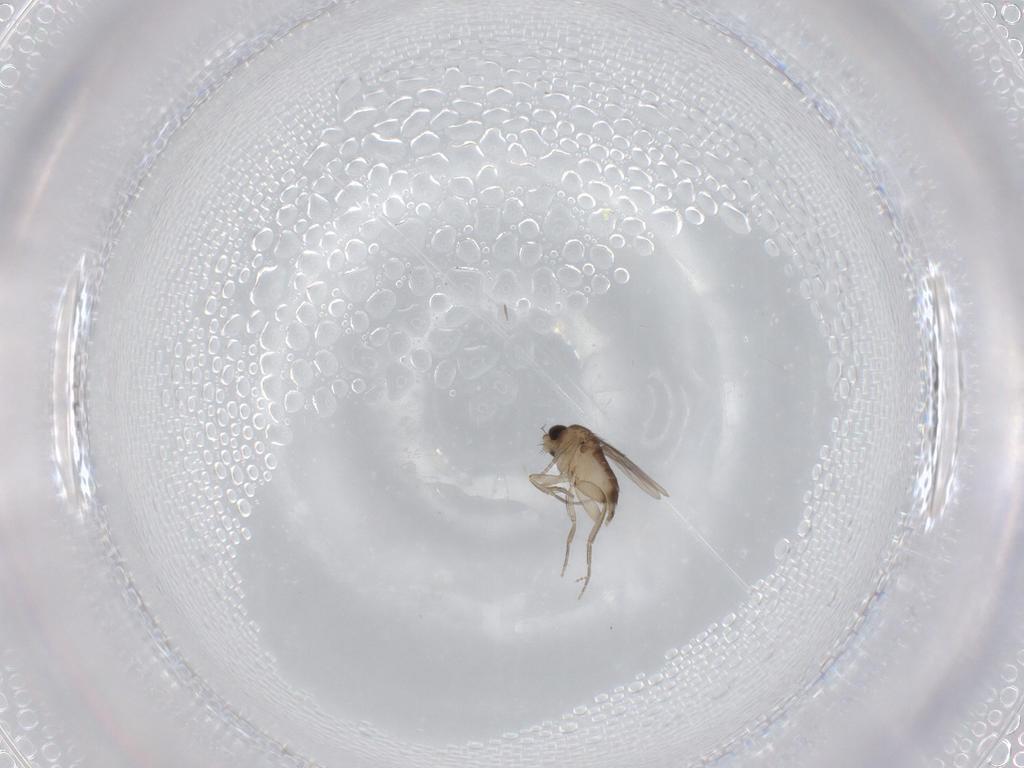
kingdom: Animalia
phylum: Arthropoda
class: Insecta
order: Diptera
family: Phoridae
